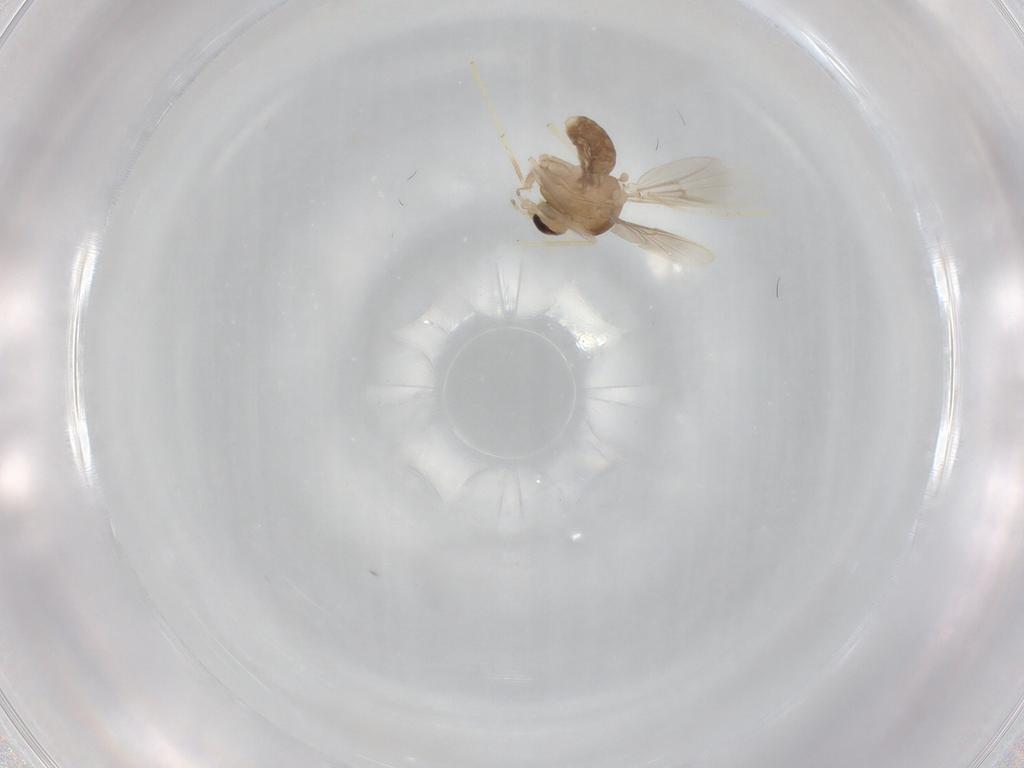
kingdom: Animalia
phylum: Arthropoda
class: Insecta
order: Diptera
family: Chironomidae
